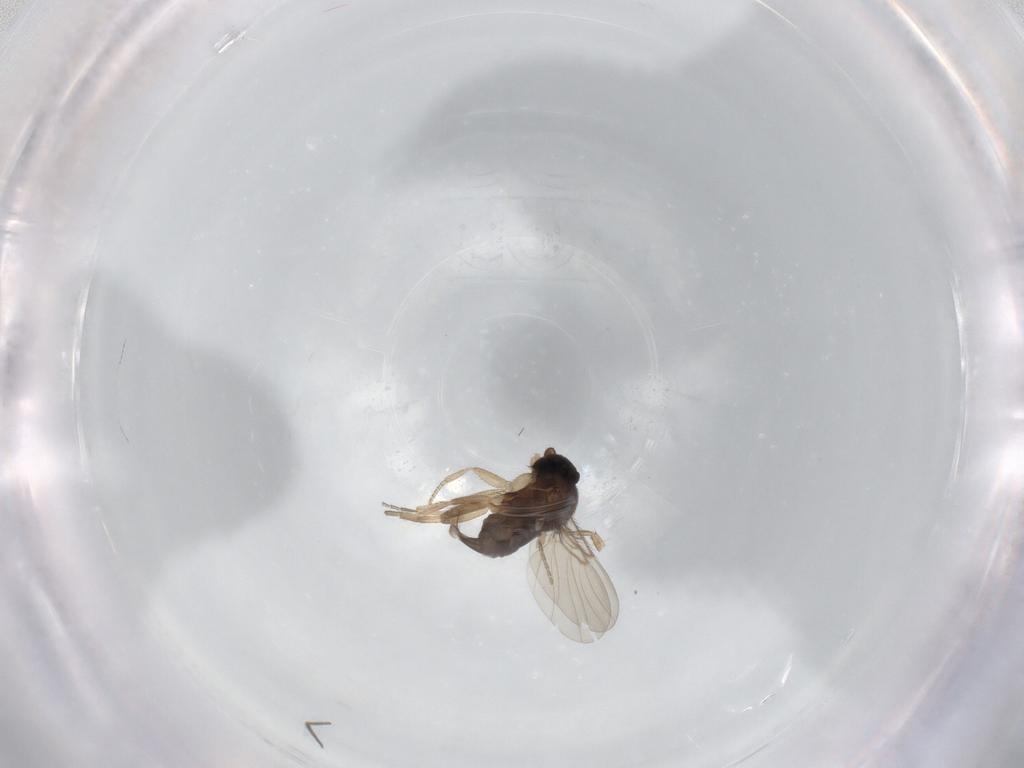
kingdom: Animalia
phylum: Arthropoda
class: Insecta
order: Diptera
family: Phoridae
